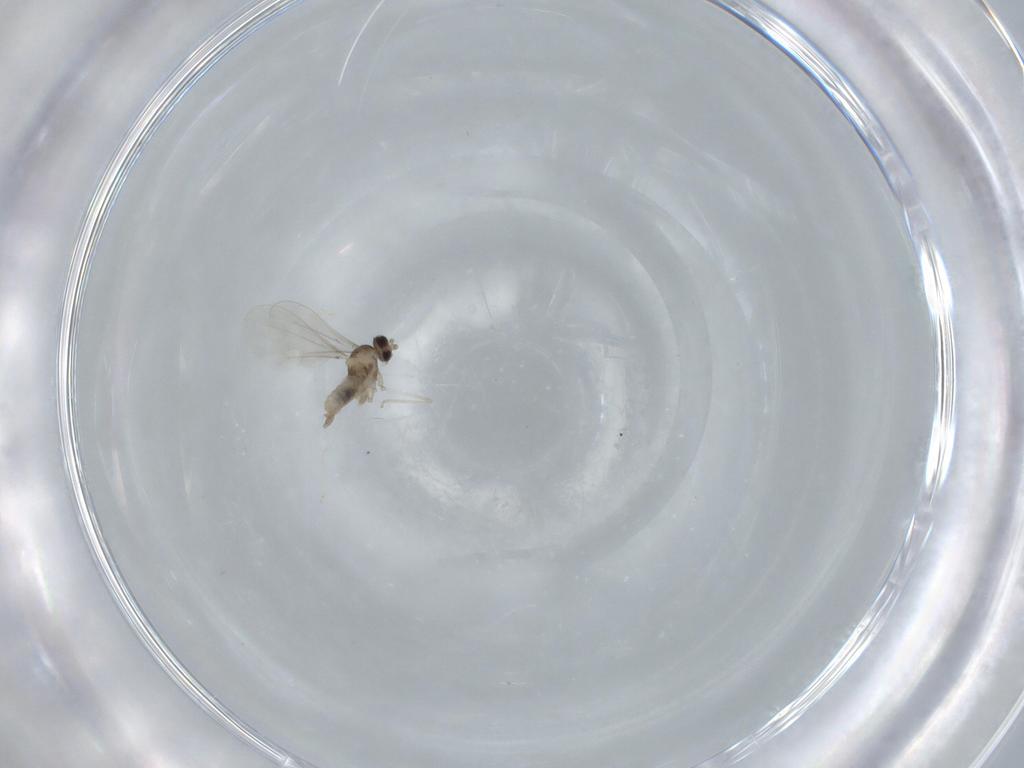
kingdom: Animalia
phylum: Arthropoda
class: Insecta
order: Diptera
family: Cecidomyiidae
